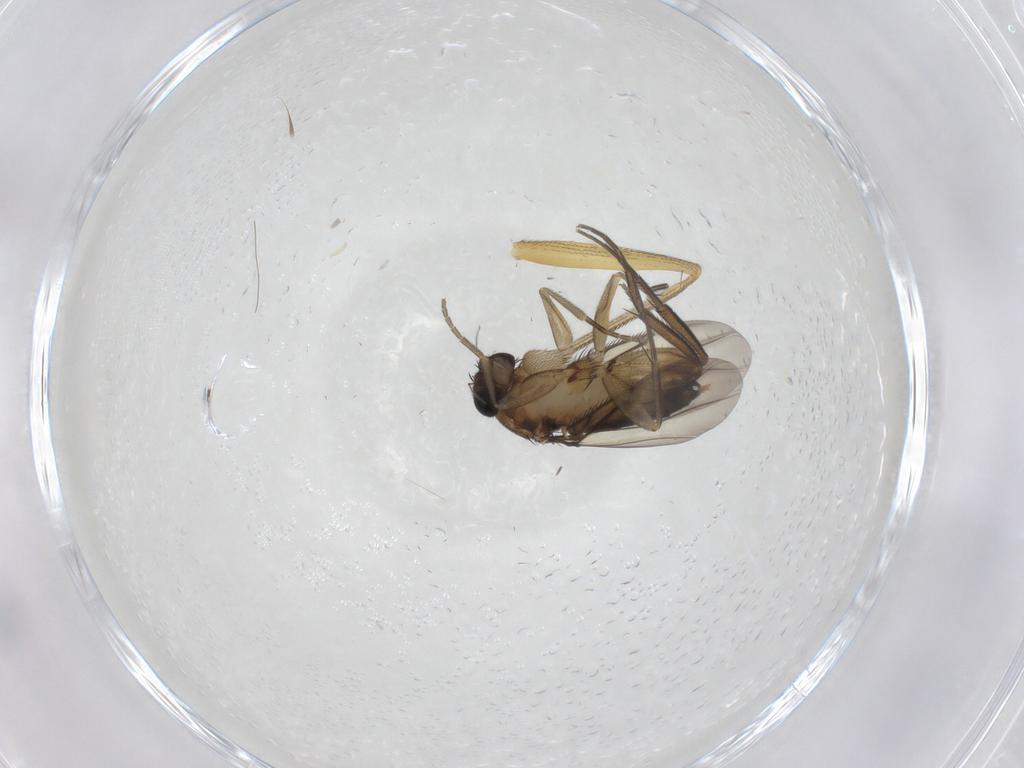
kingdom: Animalia
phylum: Arthropoda
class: Insecta
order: Diptera
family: Phoridae
